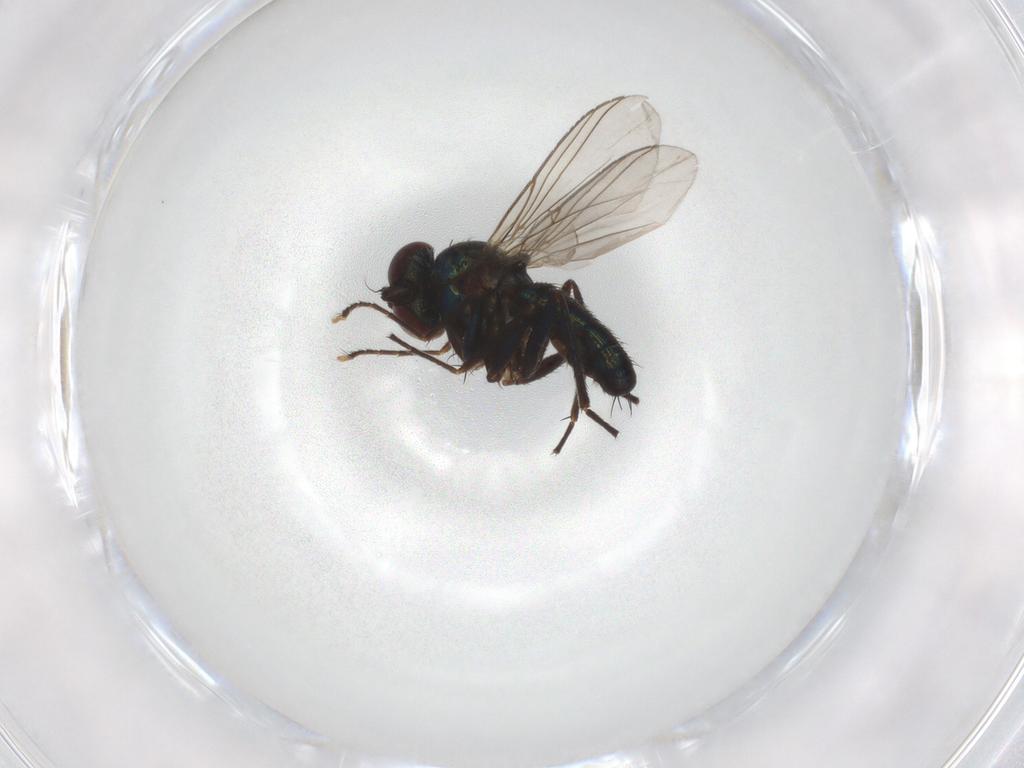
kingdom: Animalia
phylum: Arthropoda
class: Insecta
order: Diptera
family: Dolichopodidae
